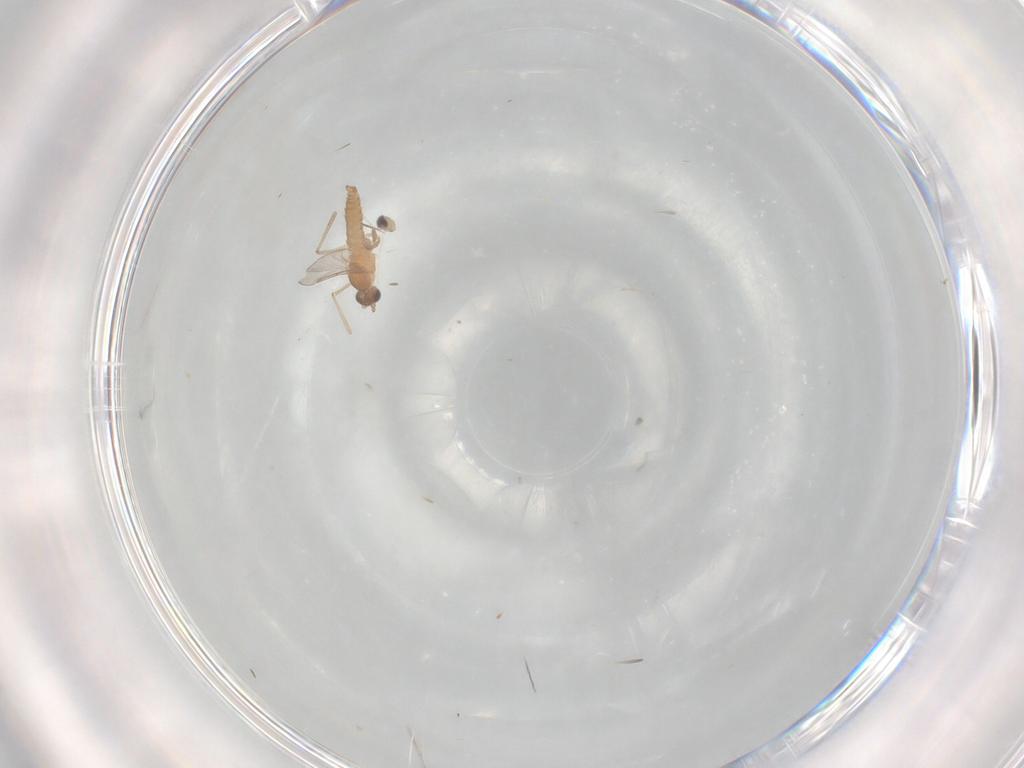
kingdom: Animalia
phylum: Arthropoda
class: Insecta
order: Diptera
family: Cecidomyiidae
